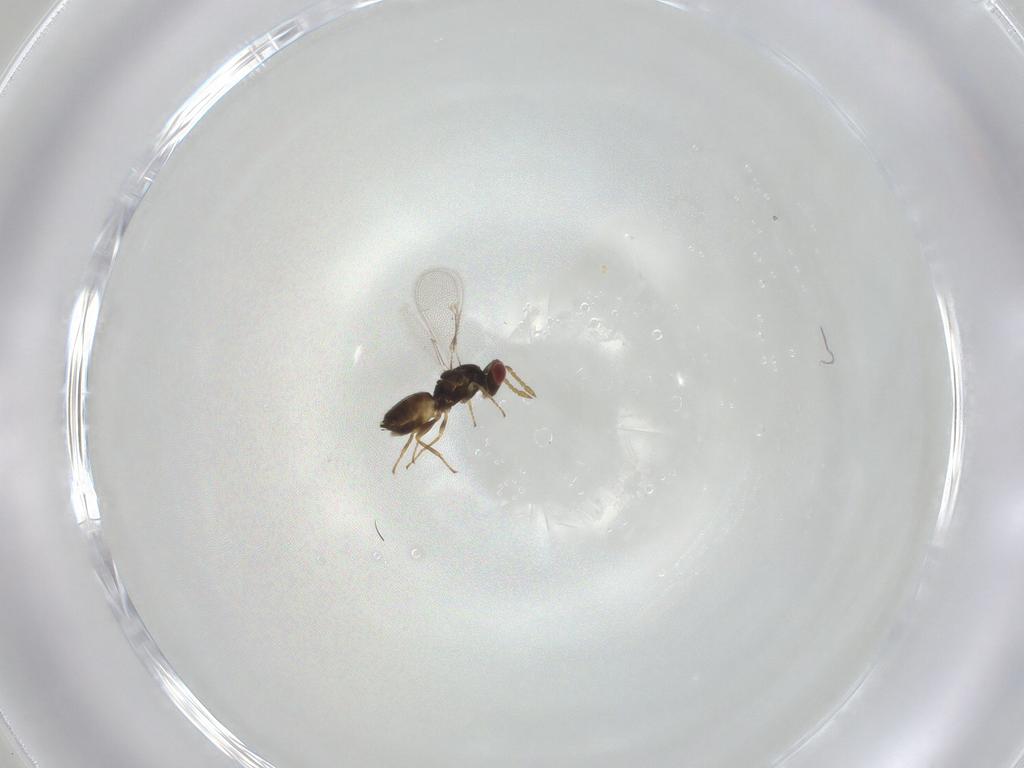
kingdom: Animalia
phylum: Arthropoda
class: Insecta
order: Hymenoptera
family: Eulophidae
